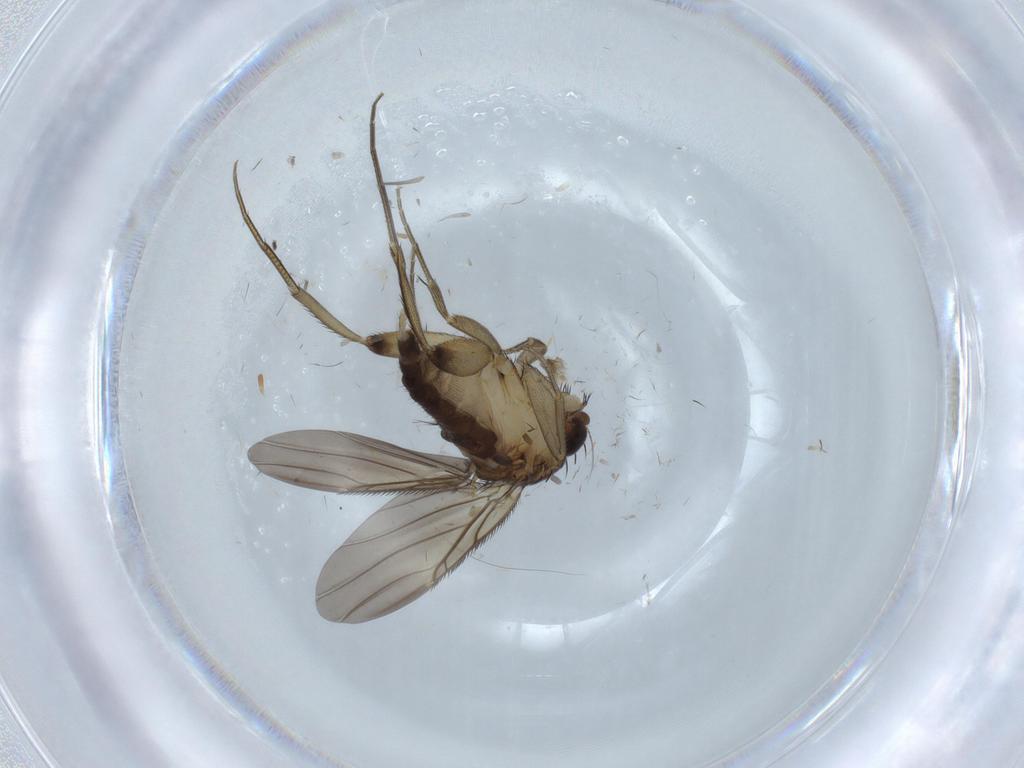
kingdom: Animalia
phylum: Arthropoda
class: Insecta
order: Diptera
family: Phoridae
